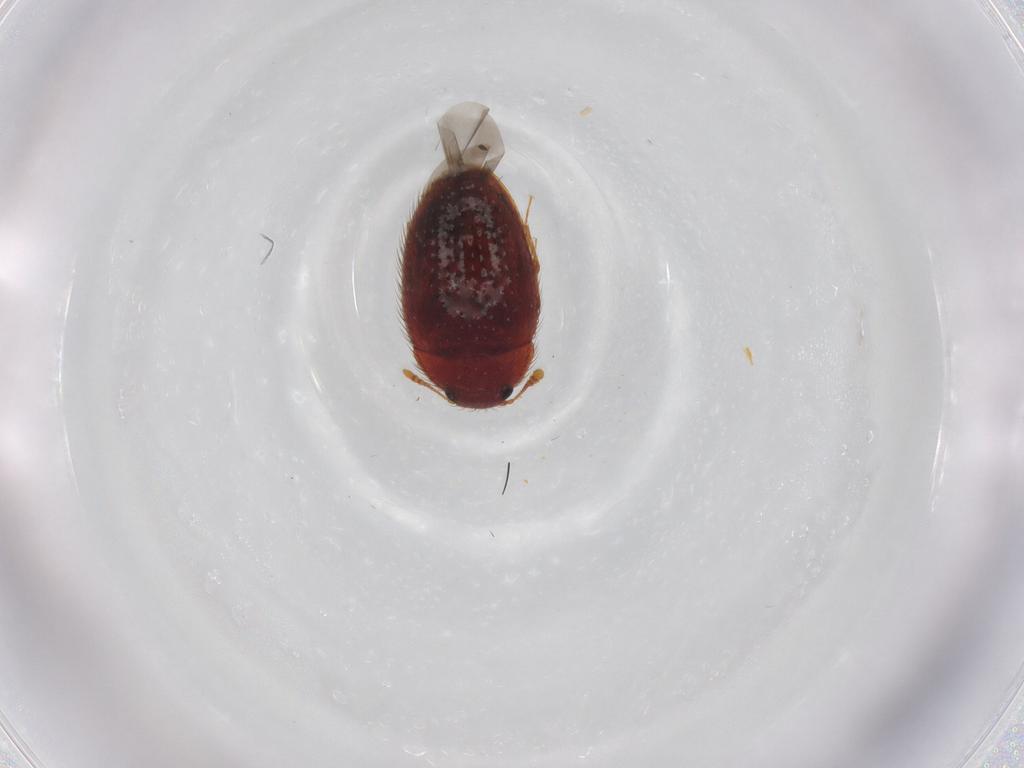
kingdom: Animalia
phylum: Arthropoda
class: Insecta
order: Coleoptera
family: Biphyllidae
